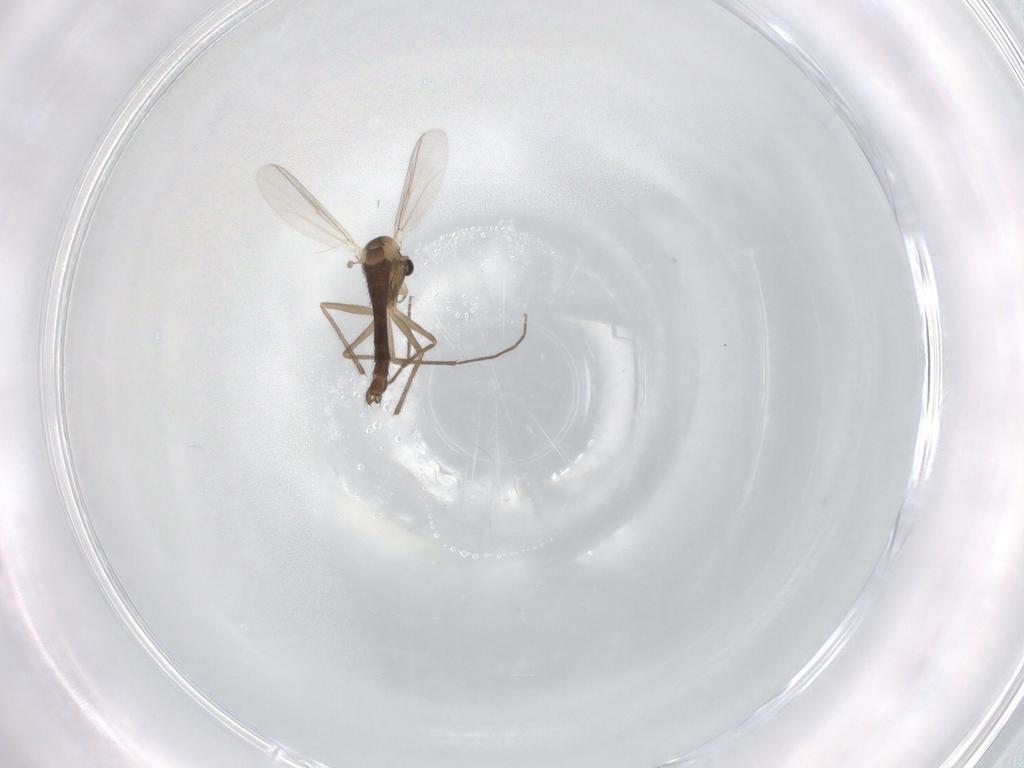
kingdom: Animalia
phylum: Arthropoda
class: Insecta
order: Diptera
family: Chironomidae
